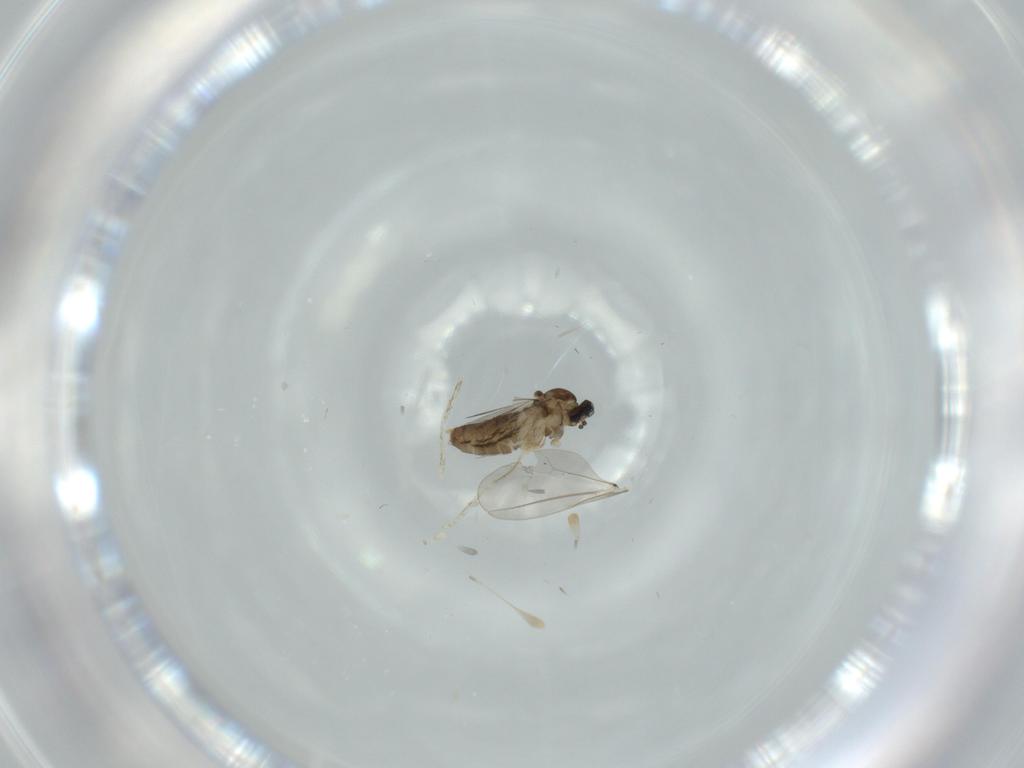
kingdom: Animalia
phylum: Arthropoda
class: Insecta
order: Diptera
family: Cecidomyiidae
